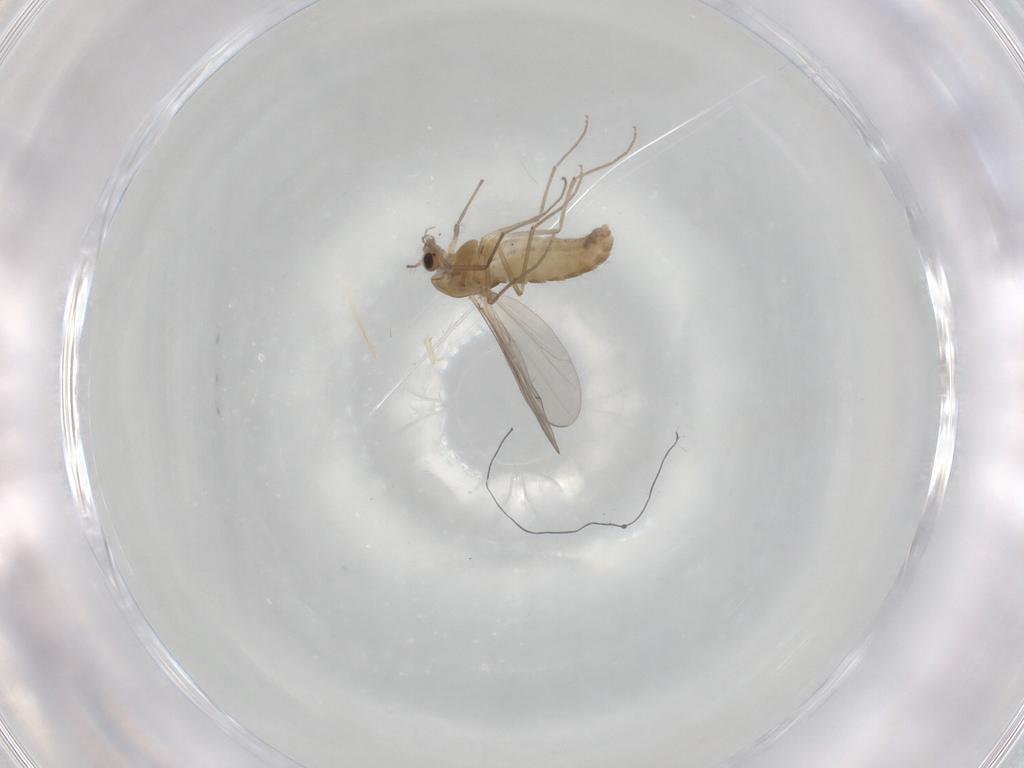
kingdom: Animalia
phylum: Arthropoda
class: Insecta
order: Diptera
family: Chironomidae
